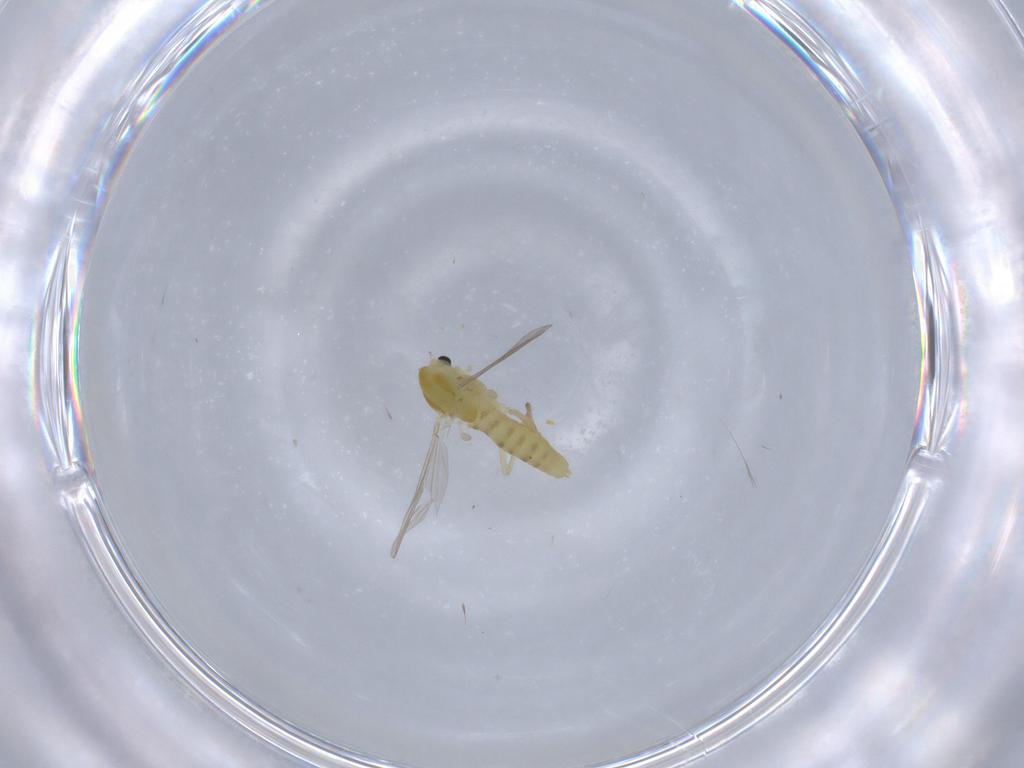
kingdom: Animalia
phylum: Arthropoda
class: Insecta
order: Diptera
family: Chironomidae
